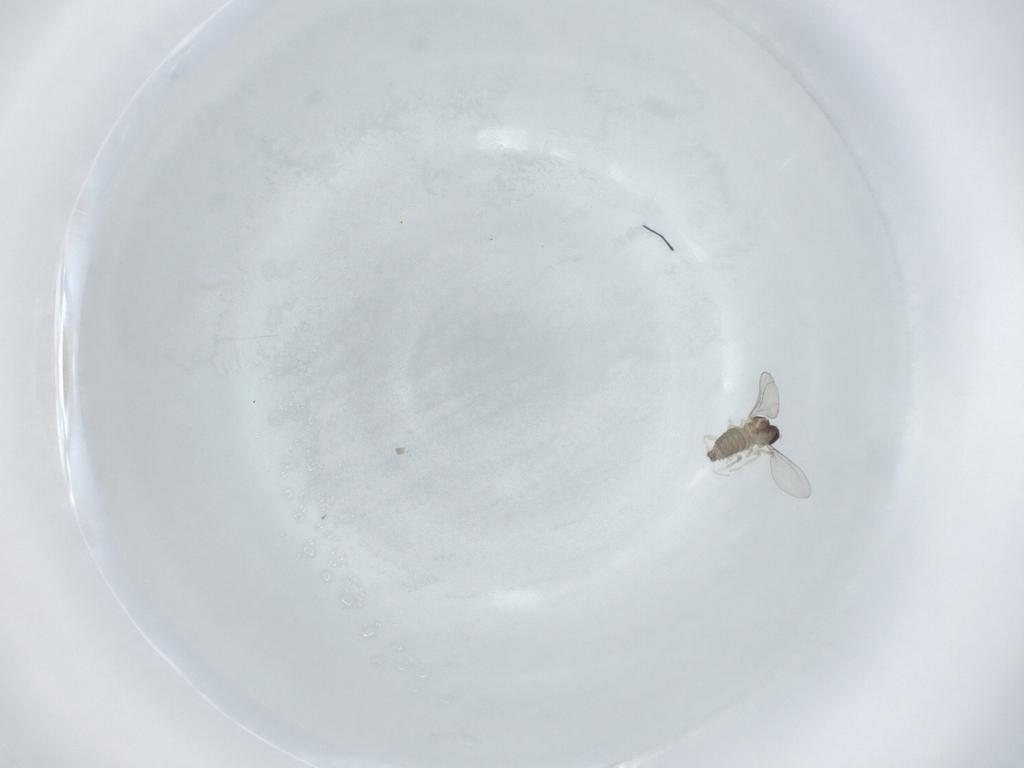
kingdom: Animalia
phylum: Arthropoda
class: Insecta
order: Diptera
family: Cecidomyiidae
